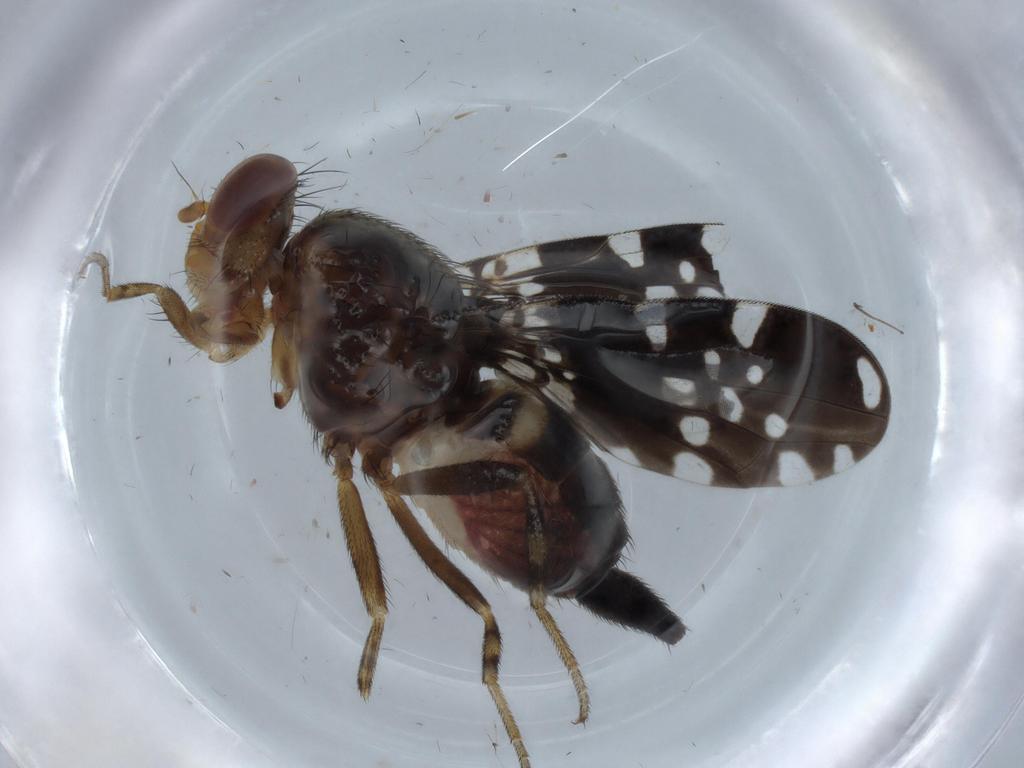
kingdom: Animalia
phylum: Arthropoda
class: Insecta
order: Diptera
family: Ulidiidae
